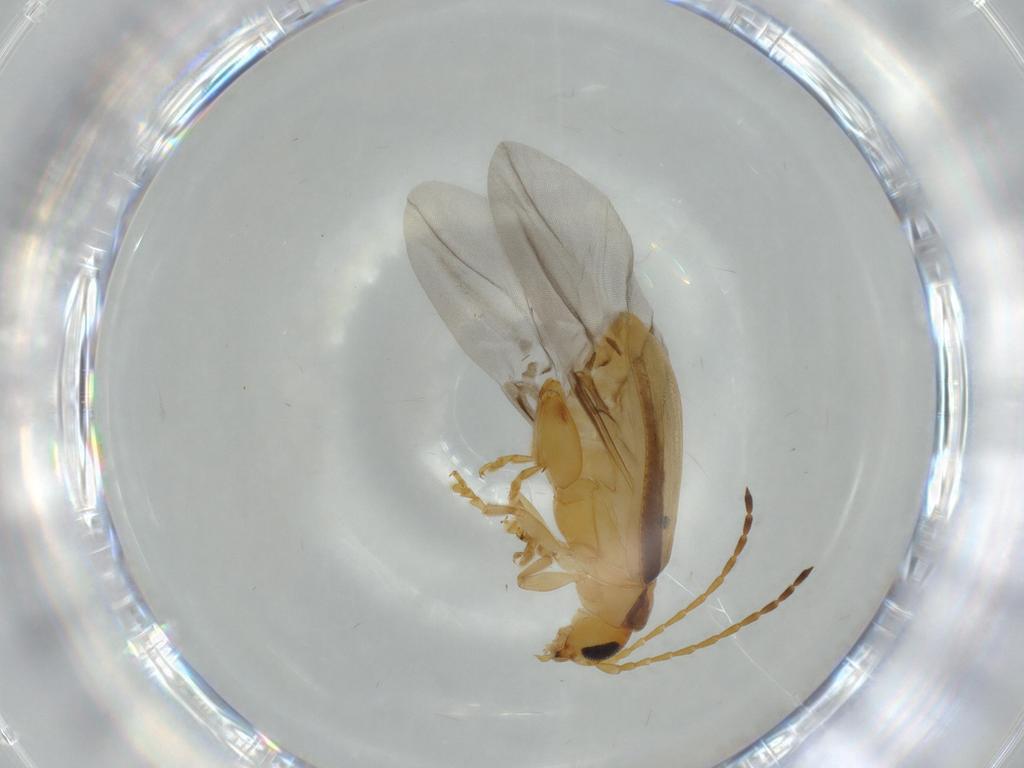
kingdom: Animalia
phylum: Arthropoda
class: Insecta
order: Coleoptera
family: Chrysomelidae
